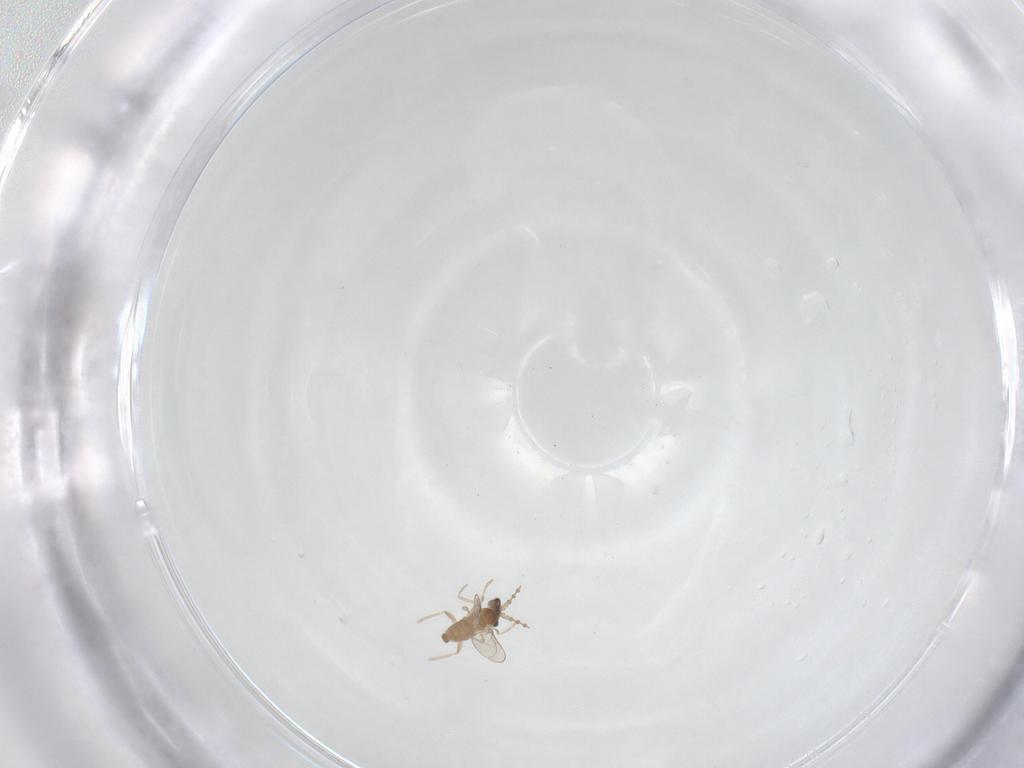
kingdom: Animalia
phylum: Arthropoda
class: Insecta
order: Diptera
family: Cecidomyiidae
